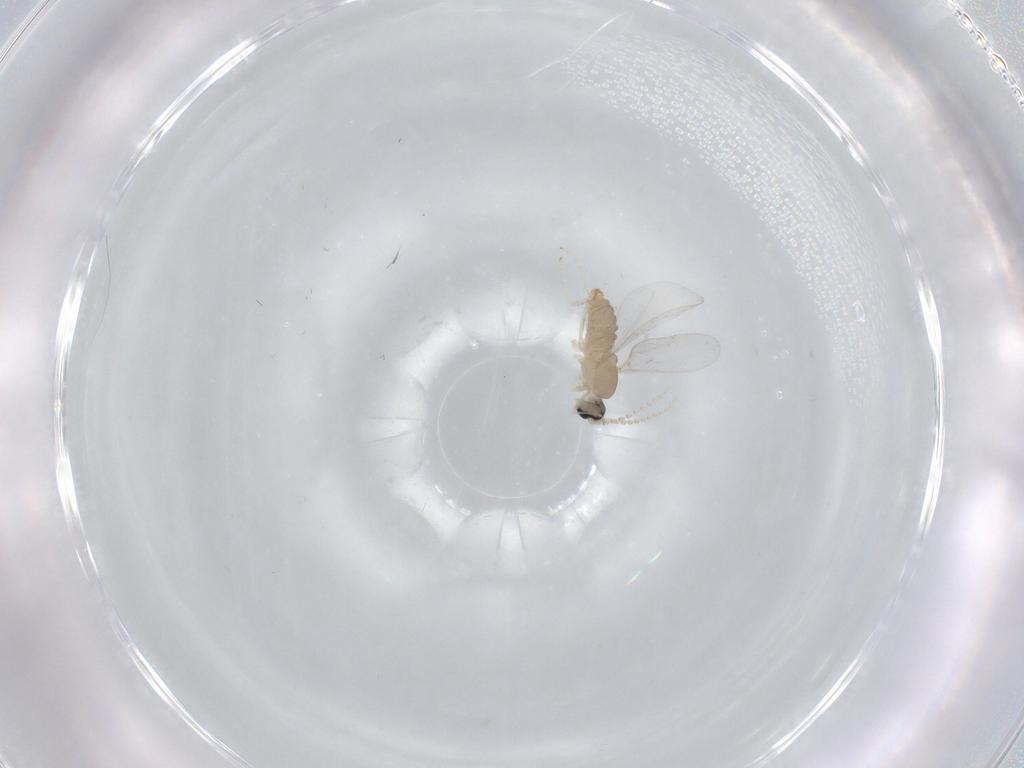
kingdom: Animalia
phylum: Arthropoda
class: Insecta
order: Diptera
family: Cecidomyiidae
